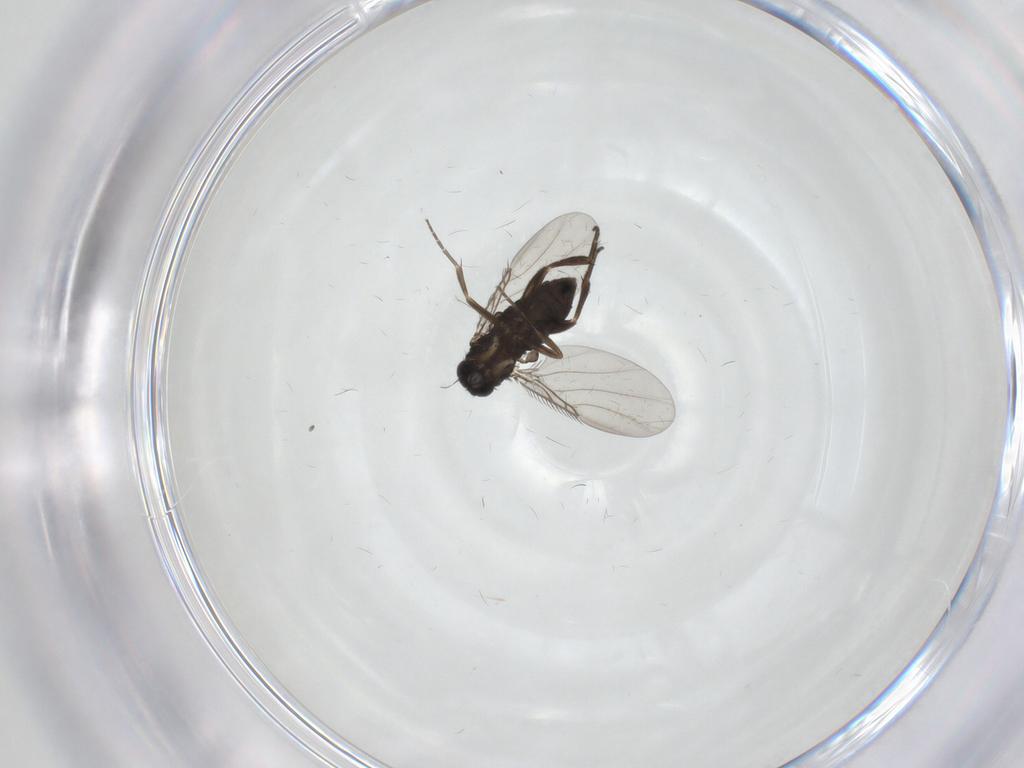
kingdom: Animalia
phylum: Arthropoda
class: Insecta
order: Diptera
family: Phoridae
